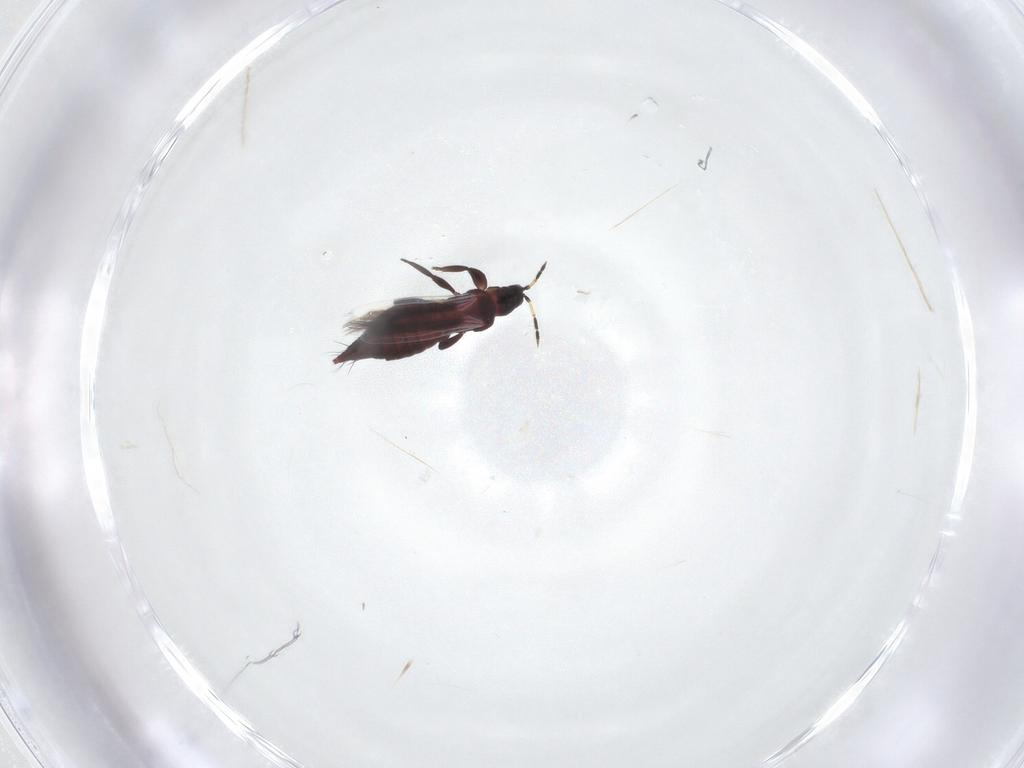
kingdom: Animalia
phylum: Arthropoda
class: Insecta
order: Thysanoptera
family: Aeolothripidae
